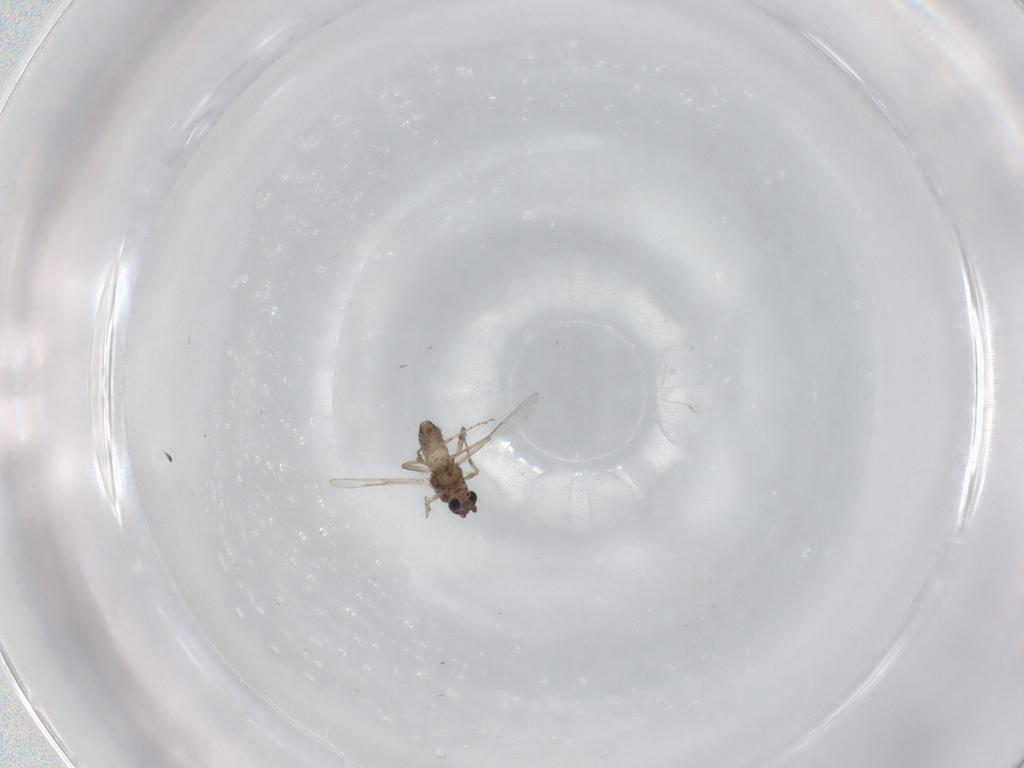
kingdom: Animalia
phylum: Arthropoda
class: Insecta
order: Diptera
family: Ceratopogonidae
